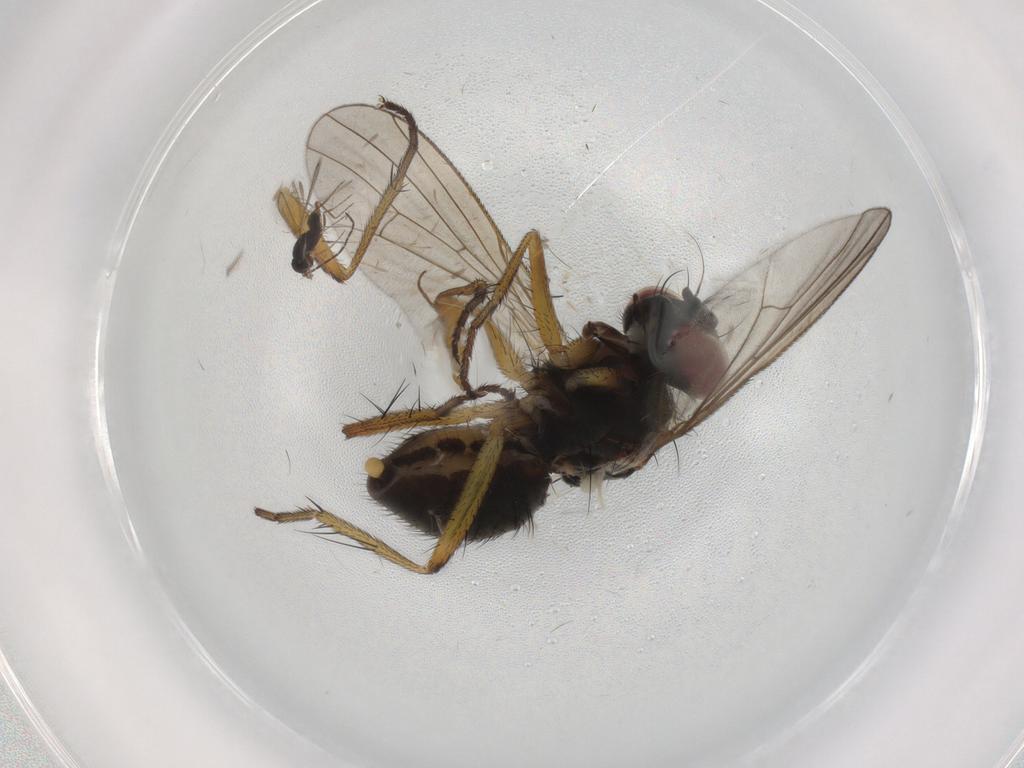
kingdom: Animalia
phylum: Arthropoda
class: Insecta
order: Diptera
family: Muscidae
